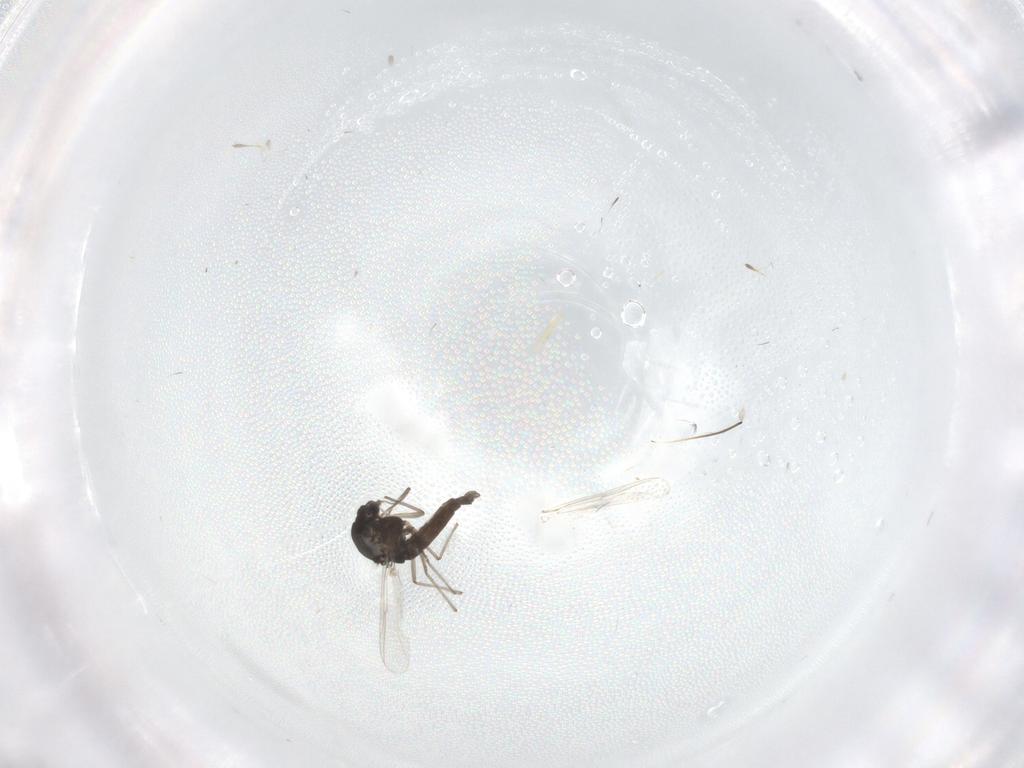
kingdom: Animalia
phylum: Arthropoda
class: Insecta
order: Diptera
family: Chironomidae
